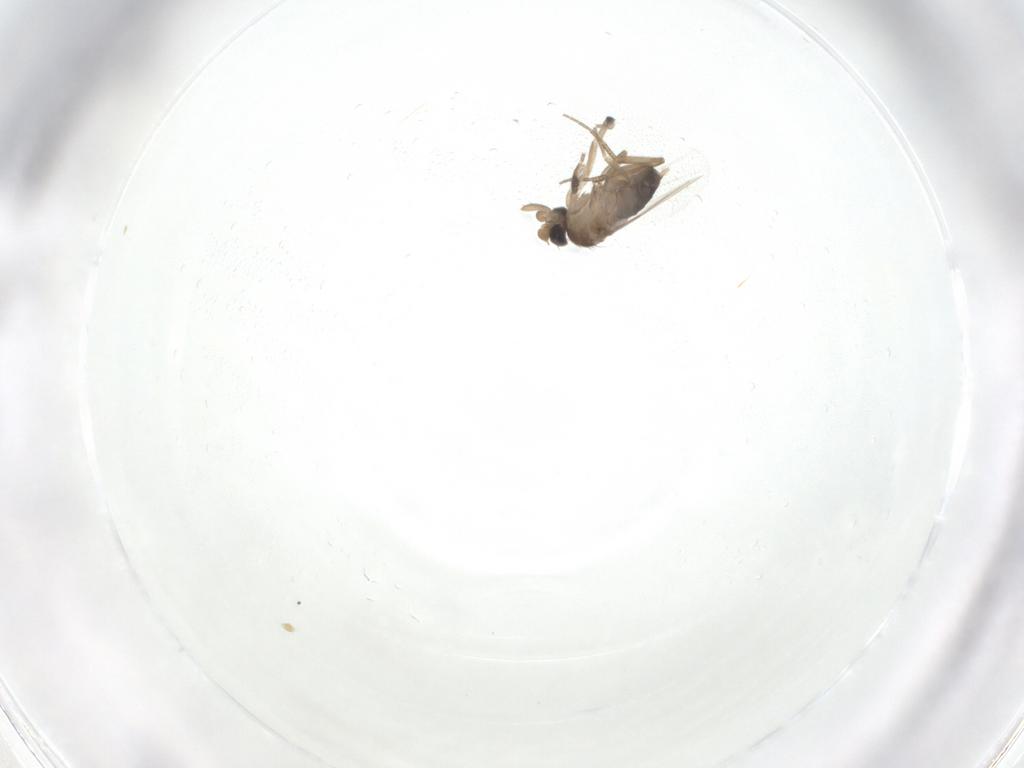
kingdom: Animalia
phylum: Arthropoda
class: Insecta
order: Diptera
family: Phoridae
